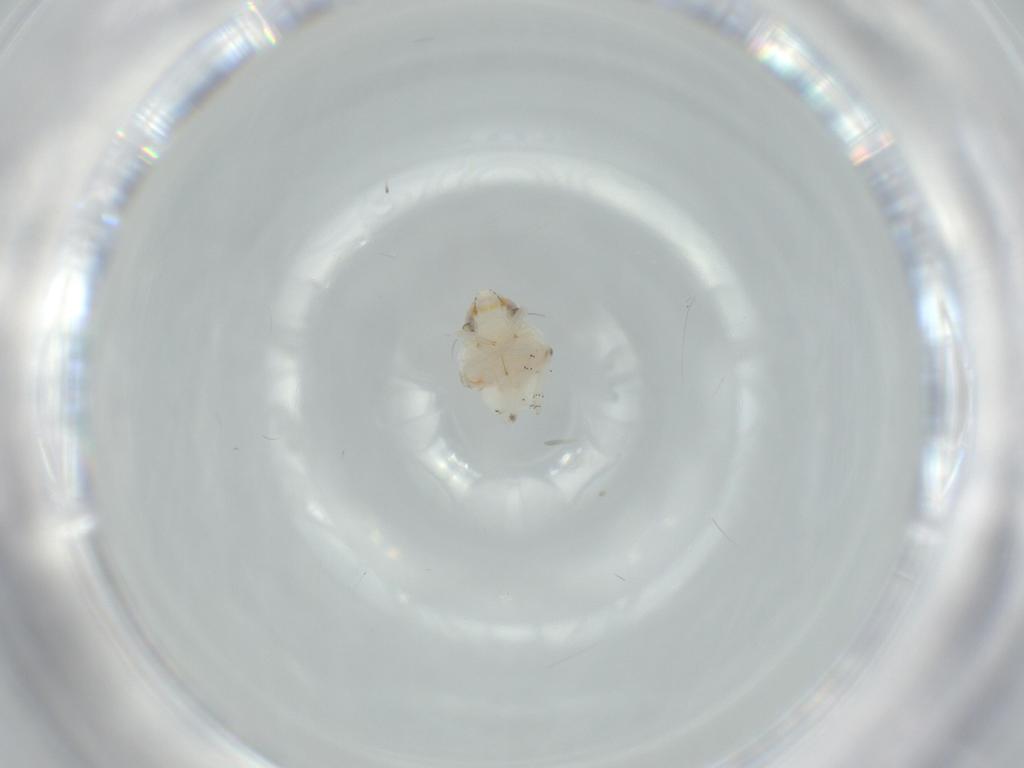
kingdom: Animalia
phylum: Arthropoda
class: Insecta
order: Hemiptera
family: Nogodinidae
